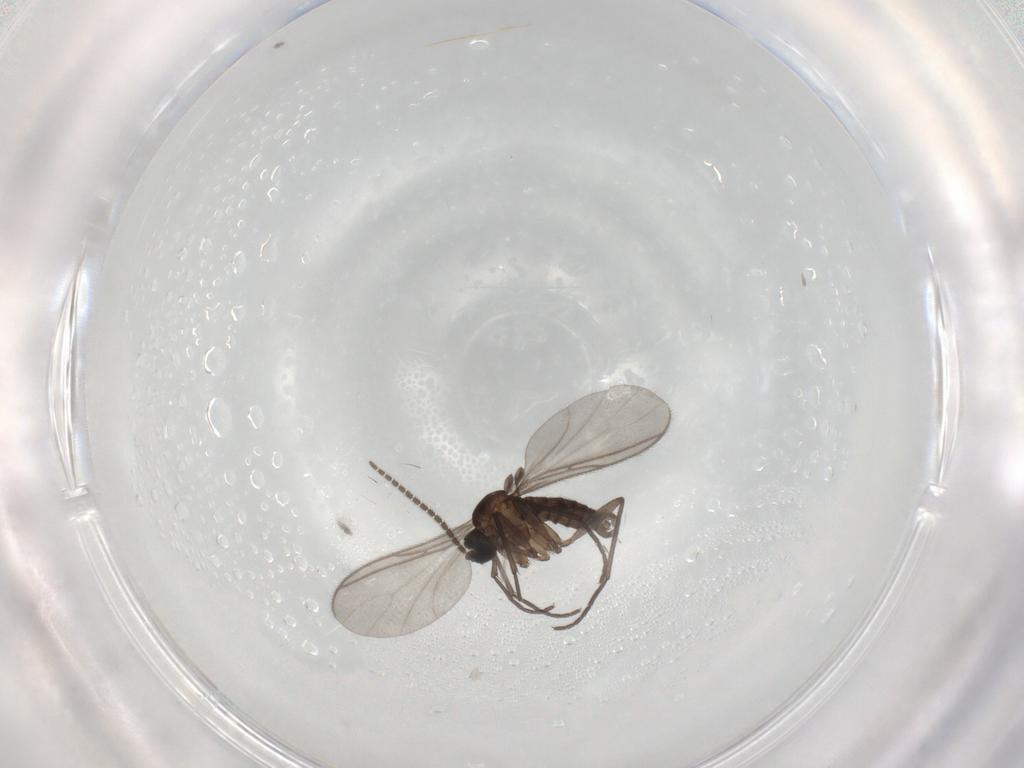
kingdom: Animalia
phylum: Arthropoda
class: Insecta
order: Diptera
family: Sciaridae
